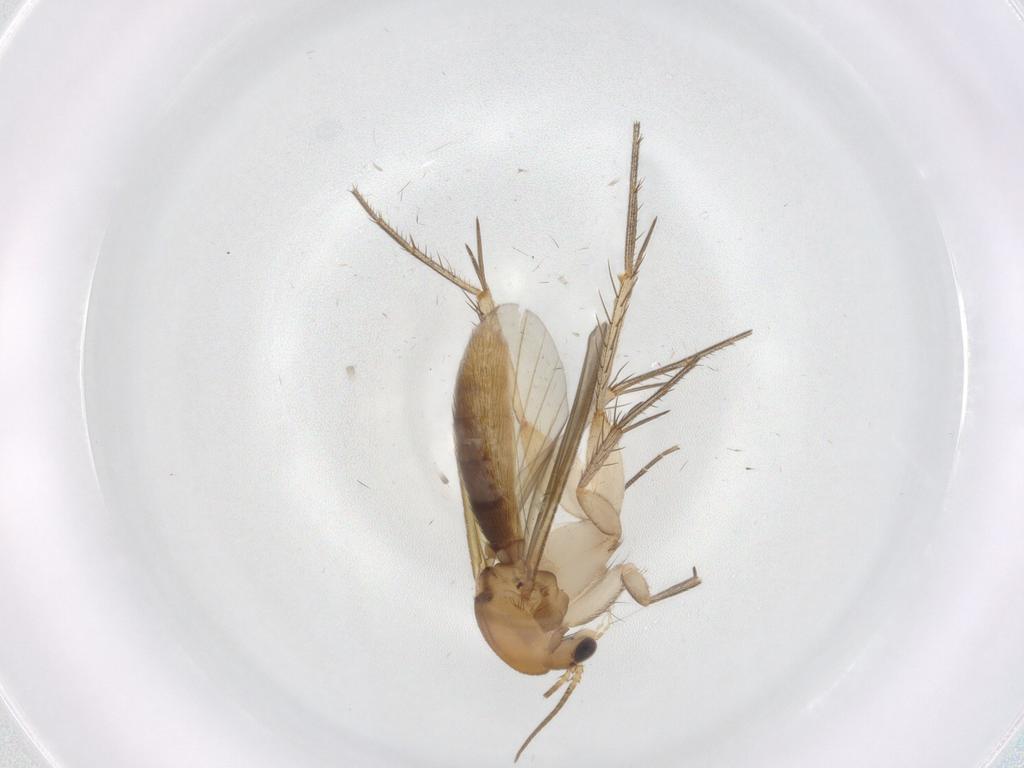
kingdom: Animalia
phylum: Arthropoda
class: Insecta
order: Diptera
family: Mycetophilidae
